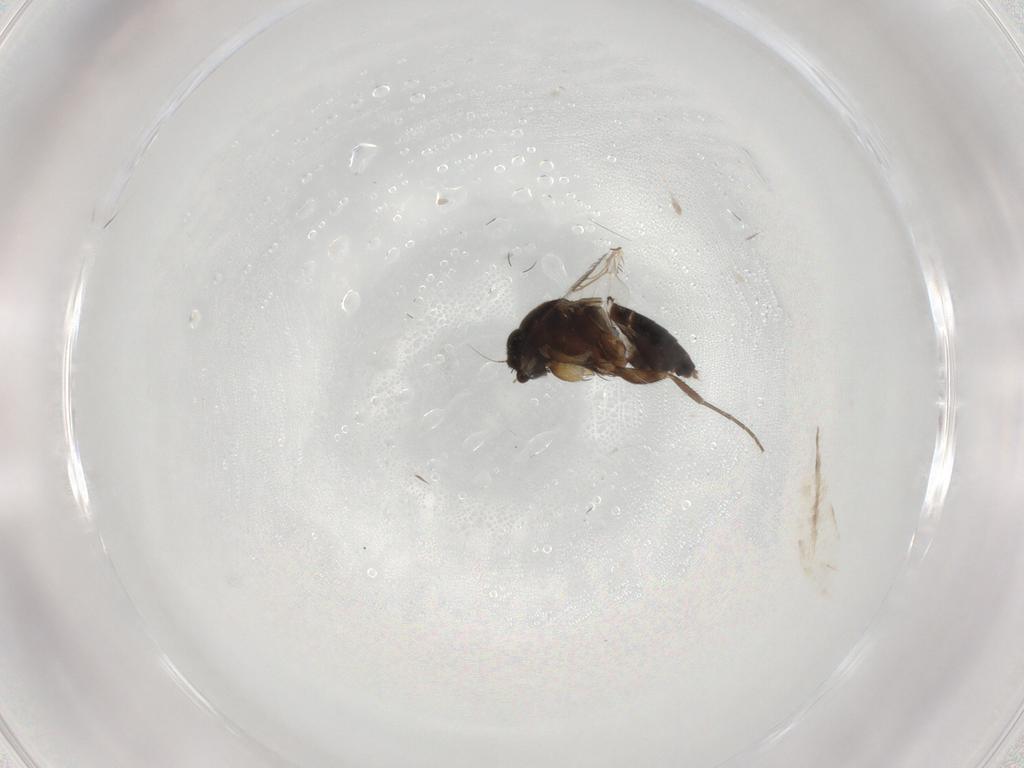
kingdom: Animalia
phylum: Arthropoda
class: Insecta
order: Diptera
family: Phoridae
